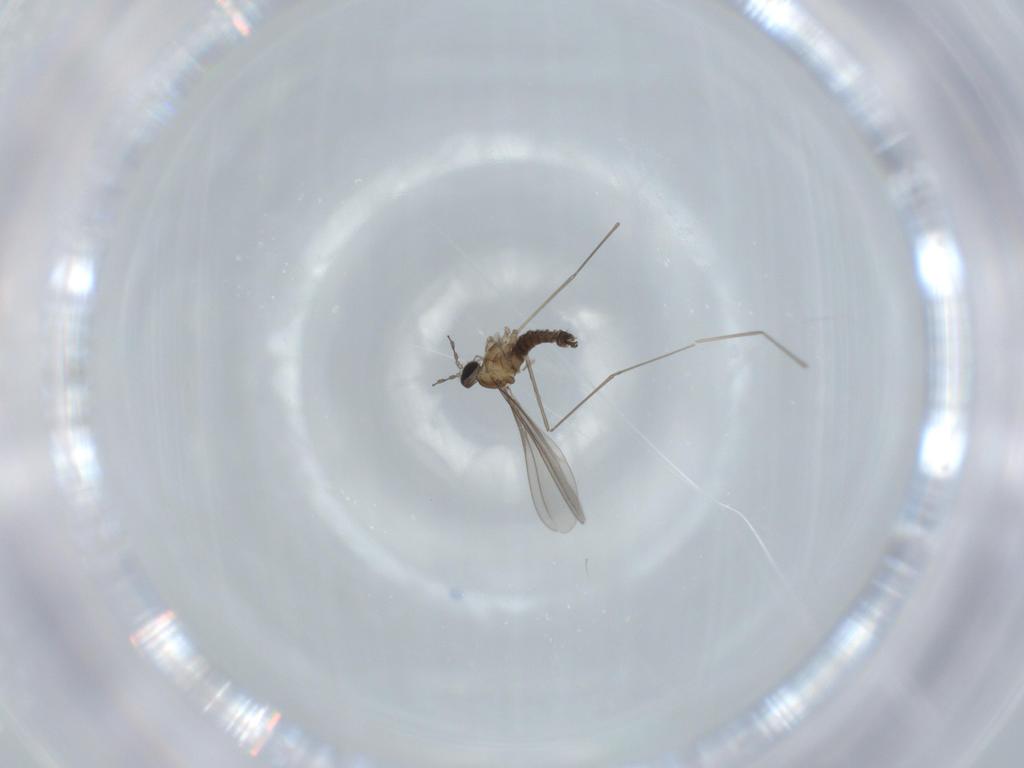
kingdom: Animalia
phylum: Arthropoda
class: Insecta
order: Diptera
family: Cecidomyiidae
